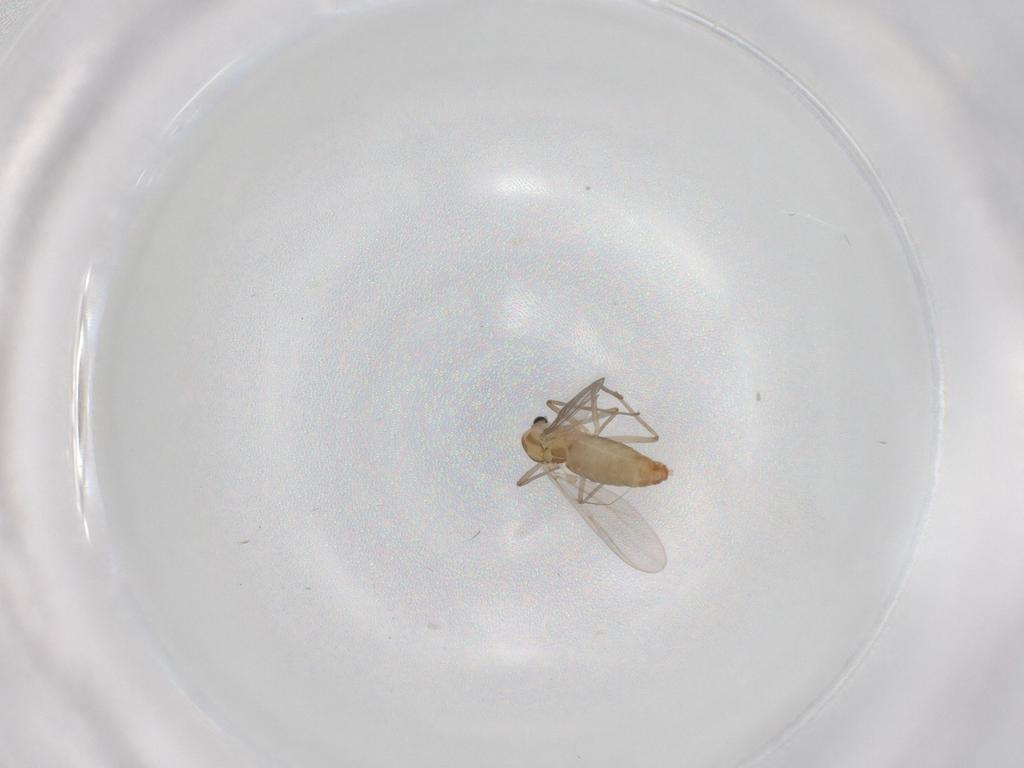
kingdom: Animalia
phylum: Arthropoda
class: Insecta
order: Diptera
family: Chironomidae
